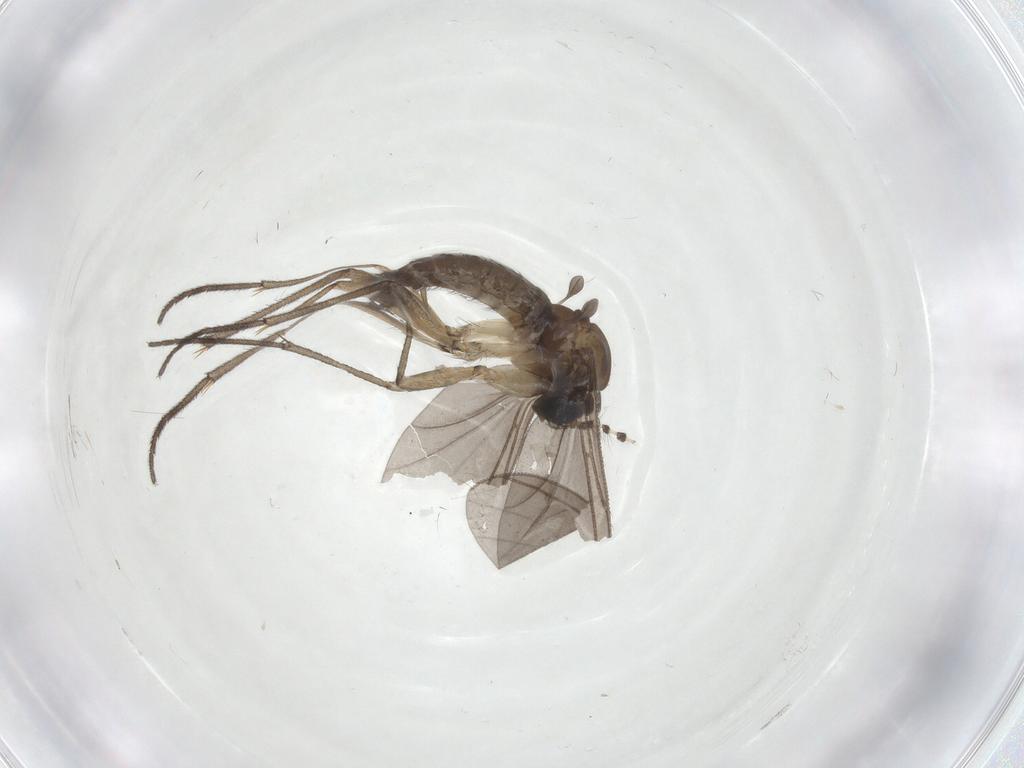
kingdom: Animalia
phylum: Arthropoda
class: Insecta
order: Diptera
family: Sciaridae
